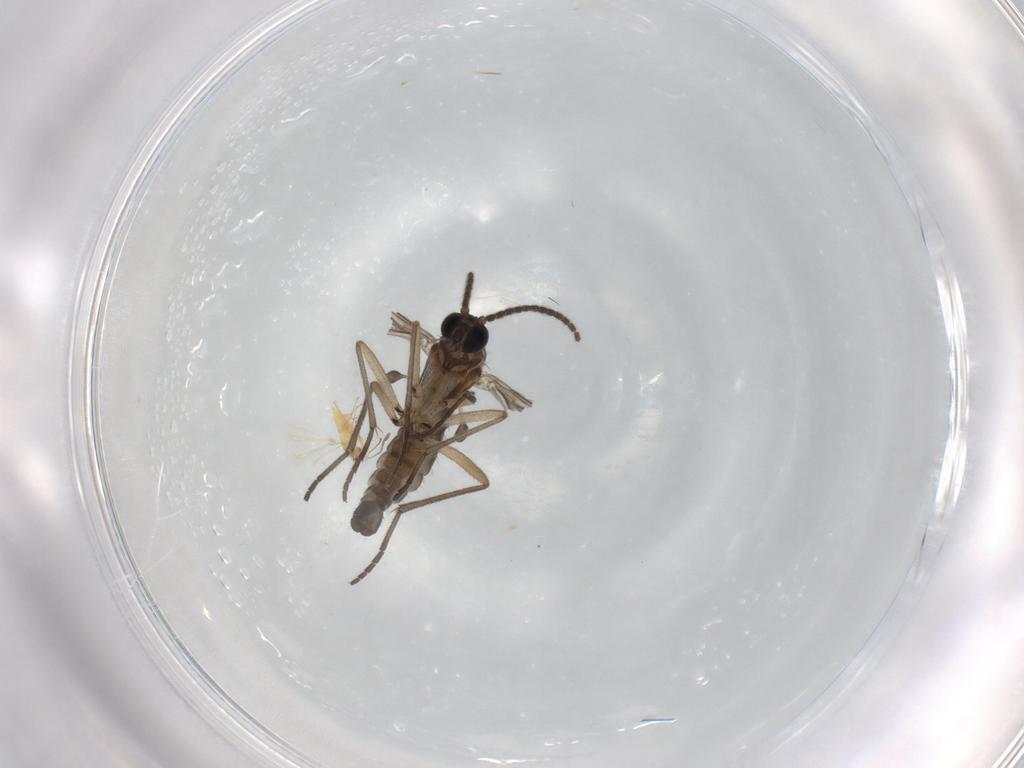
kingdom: Animalia
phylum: Arthropoda
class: Insecta
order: Diptera
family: Sciaridae
